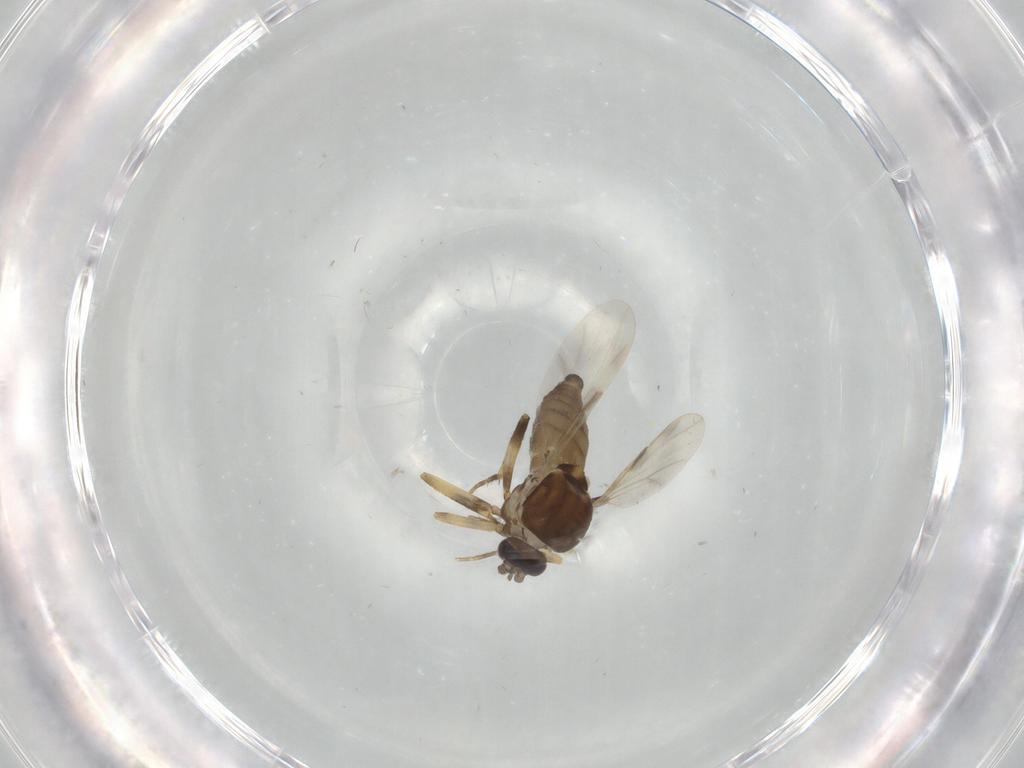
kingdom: Animalia
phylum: Arthropoda
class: Insecta
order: Diptera
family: Ceratopogonidae
